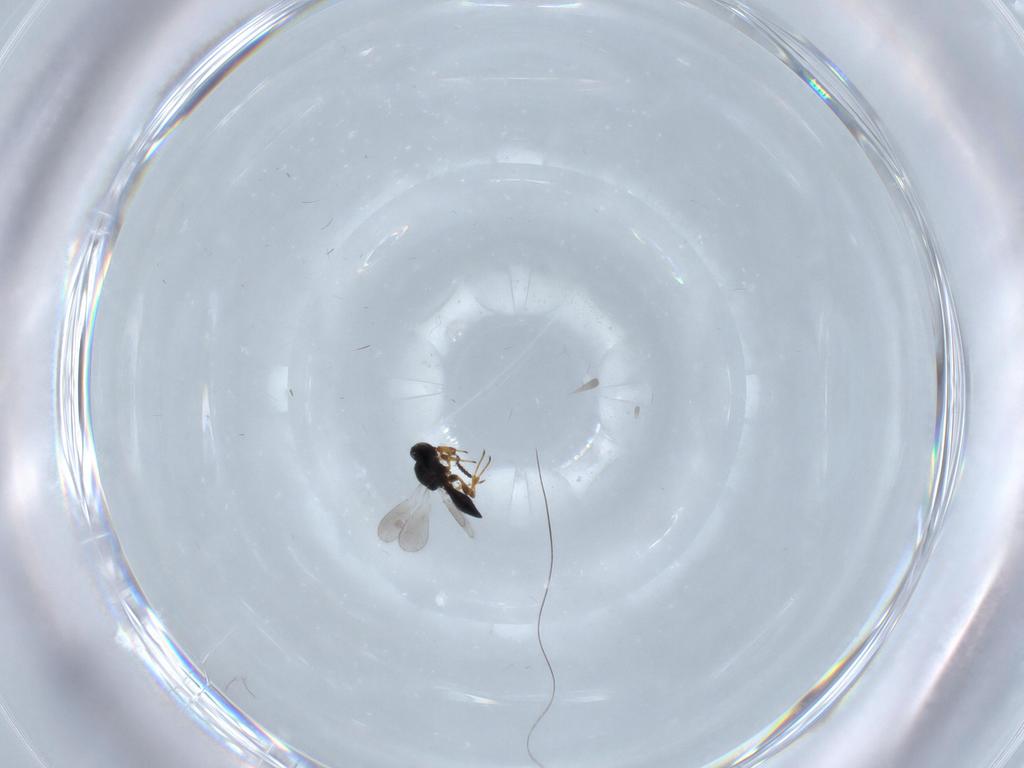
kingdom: Animalia
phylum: Arthropoda
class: Insecta
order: Hymenoptera
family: Platygastridae
